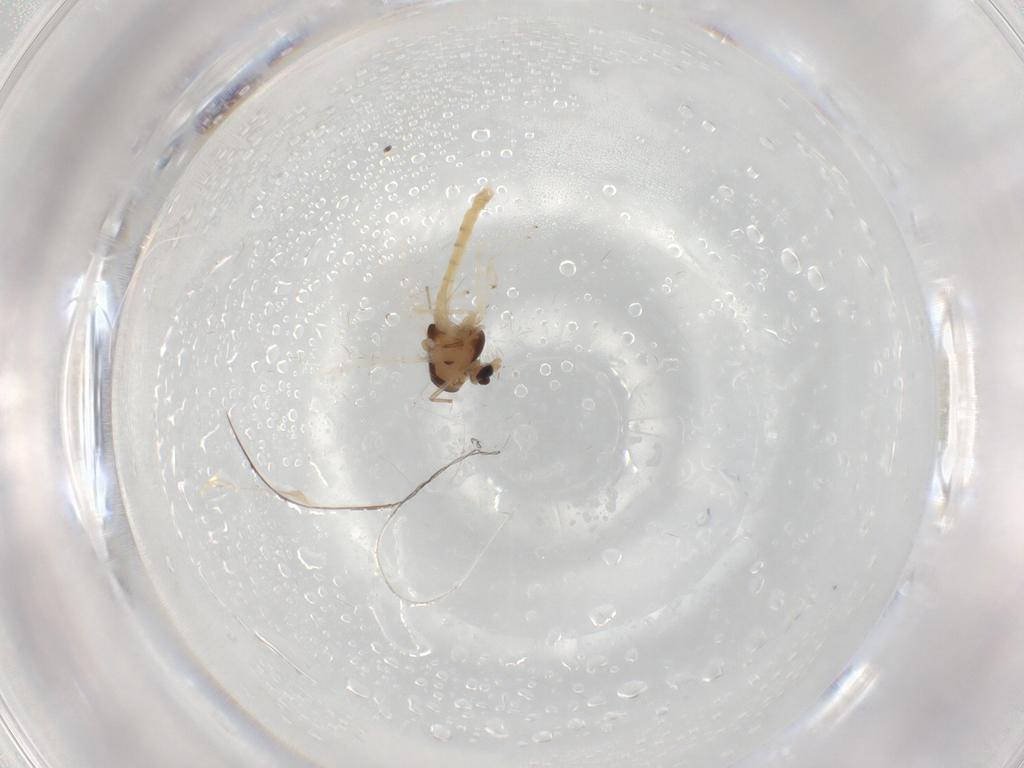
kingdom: Animalia
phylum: Arthropoda
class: Insecta
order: Diptera
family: Chironomidae
